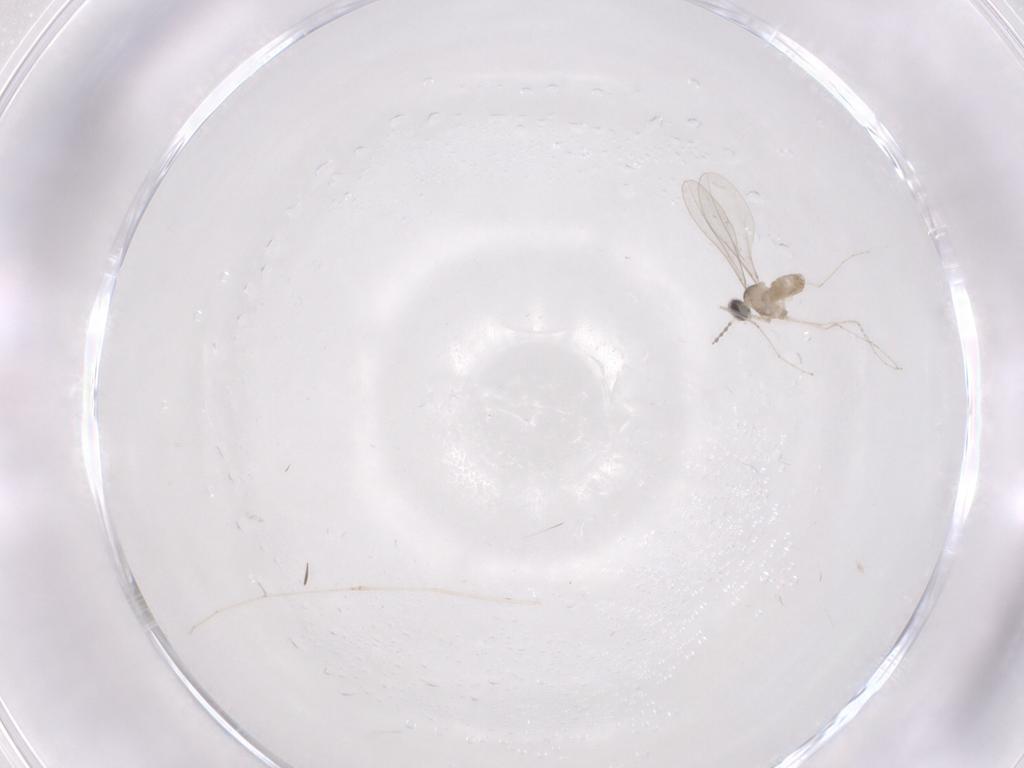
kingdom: Animalia
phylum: Arthropoda
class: Insecta
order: Diptera
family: Cecidomyiidae
